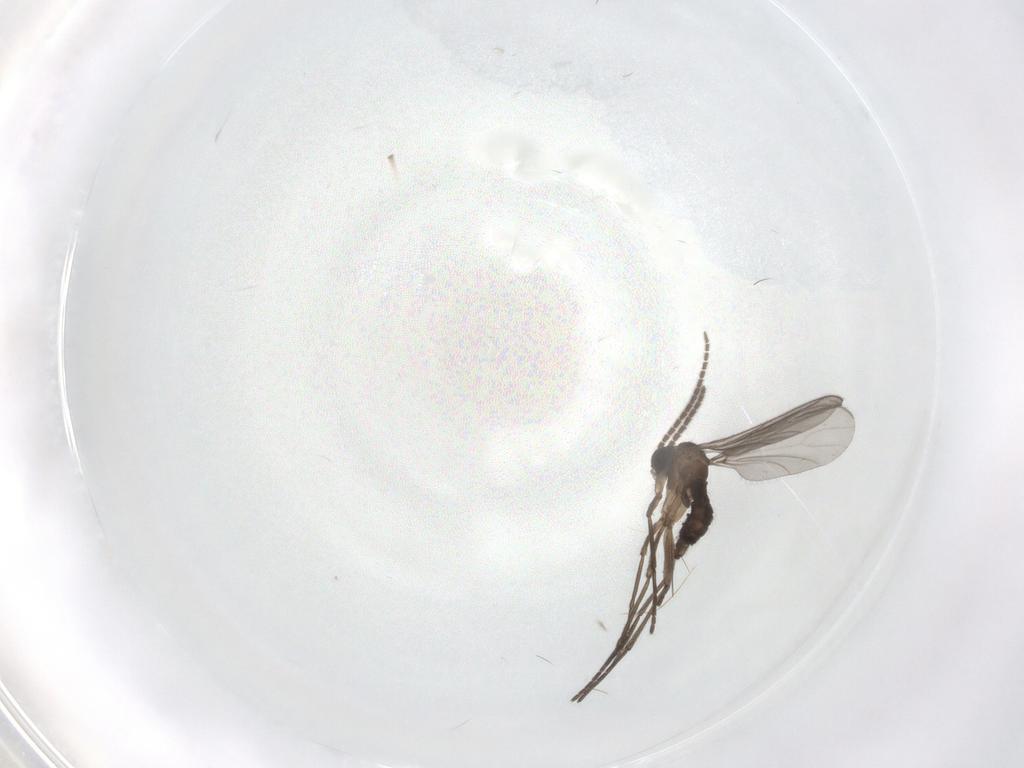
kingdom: Animalia
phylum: Arthropoda
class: Insecta
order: Diptera
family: Sciaridae
